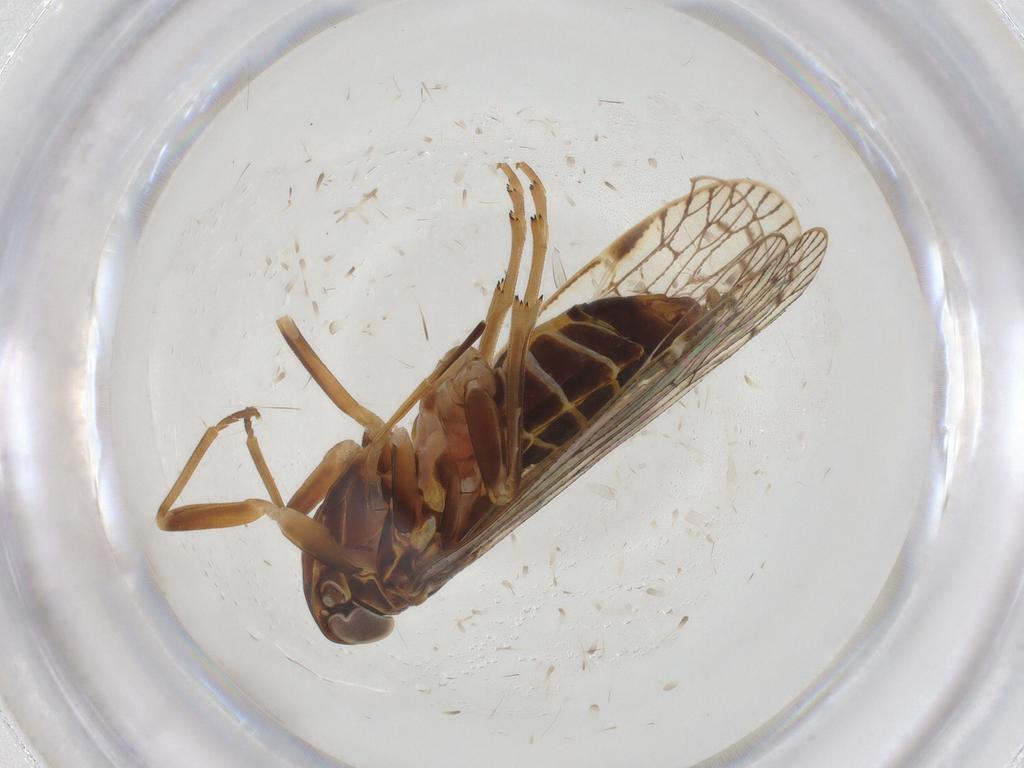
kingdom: Animalia
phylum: Arthropoda
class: Insecta
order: Hemiptera
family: Cixiidae
